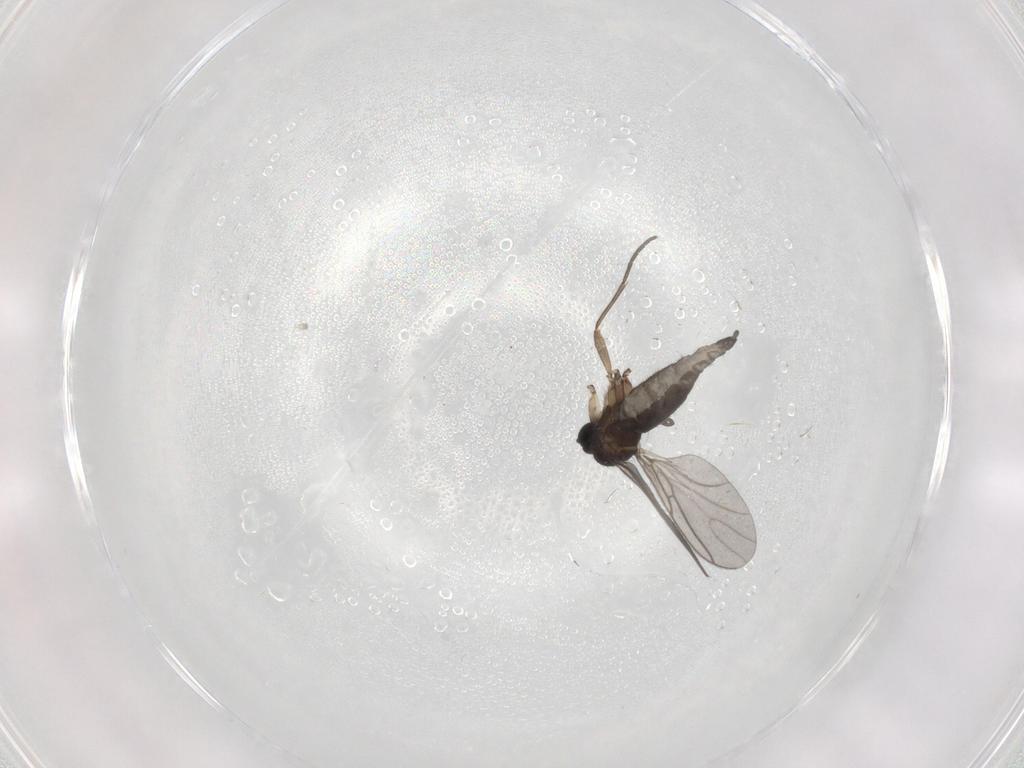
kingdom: Animalia
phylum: Arthropoda
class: Insecta
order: Diptera
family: Sciaridae
